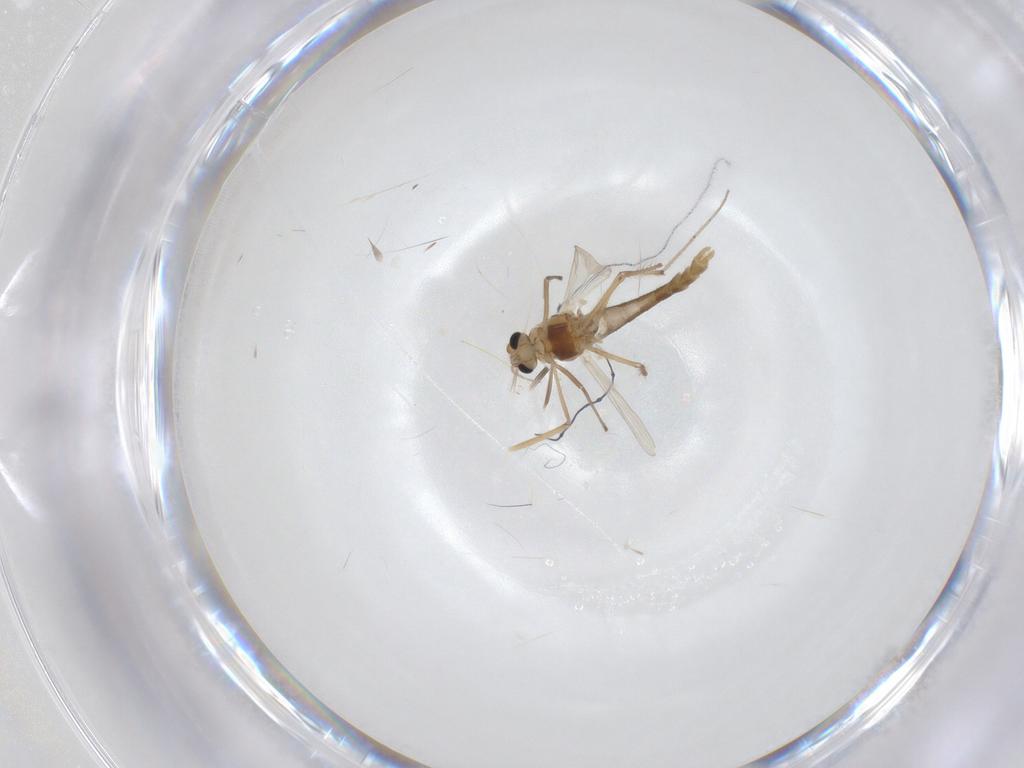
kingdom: Animalia
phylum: Arthropoda
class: Insecta
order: Diptera
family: Chironomidae
